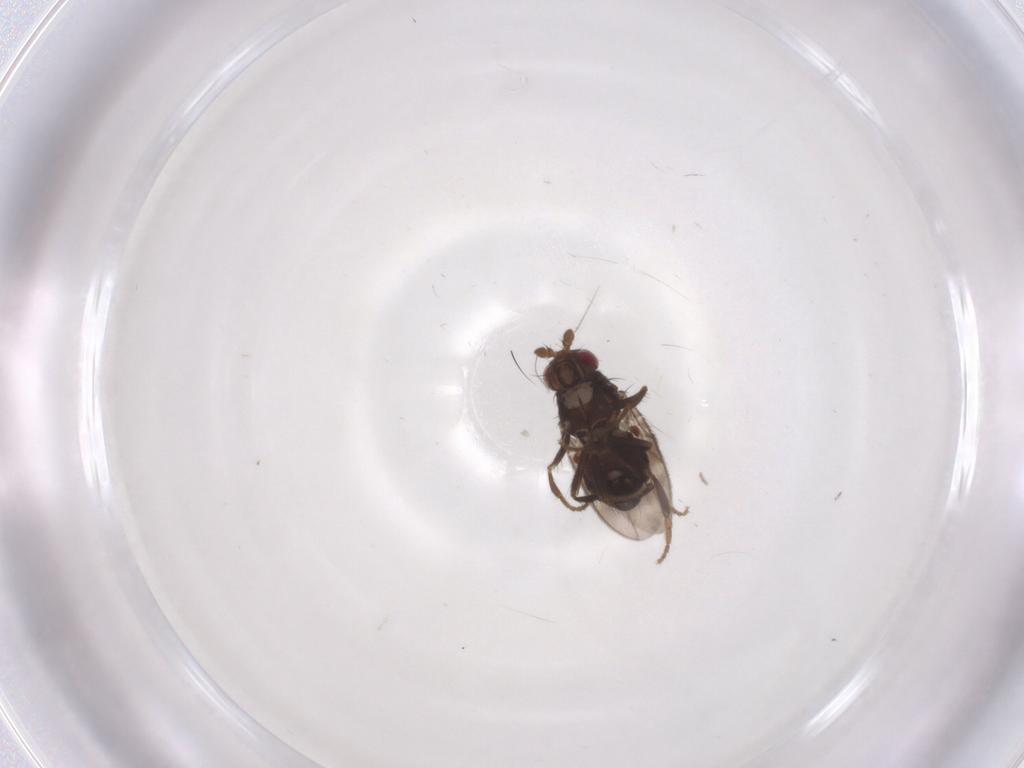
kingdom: Animalia
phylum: Arthropoda
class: Insecta
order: Diptera
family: Sphaeroceridae
